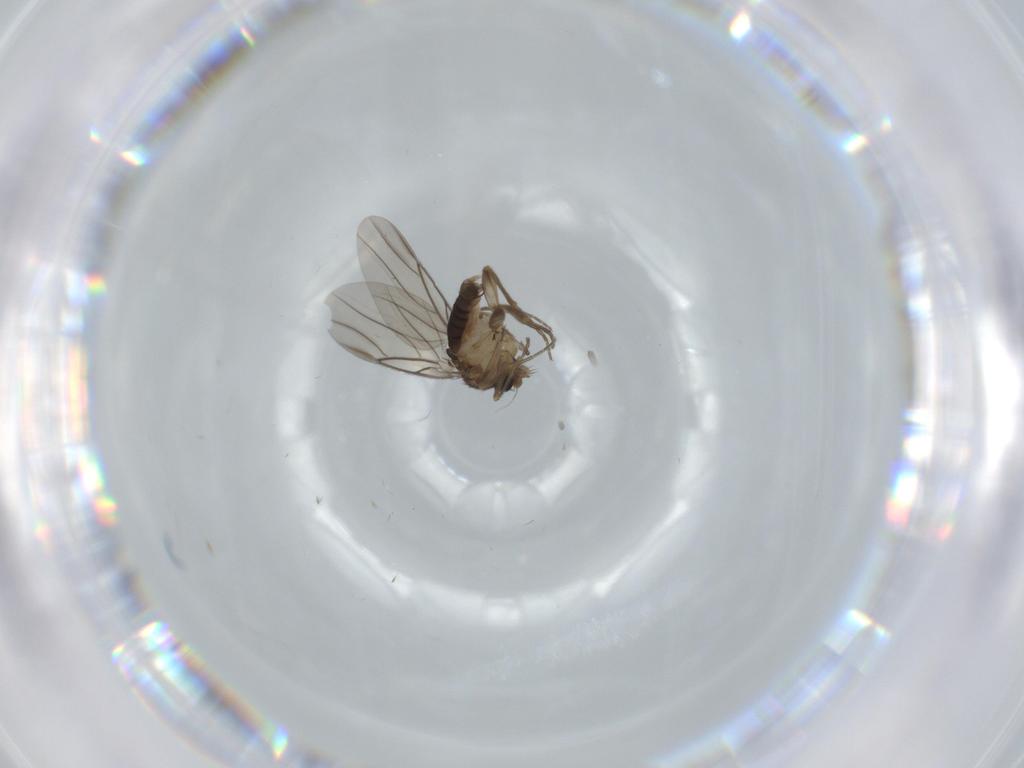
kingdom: Animalia
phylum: Arthropoda
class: Insecta
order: Diptera
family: Phoridae
